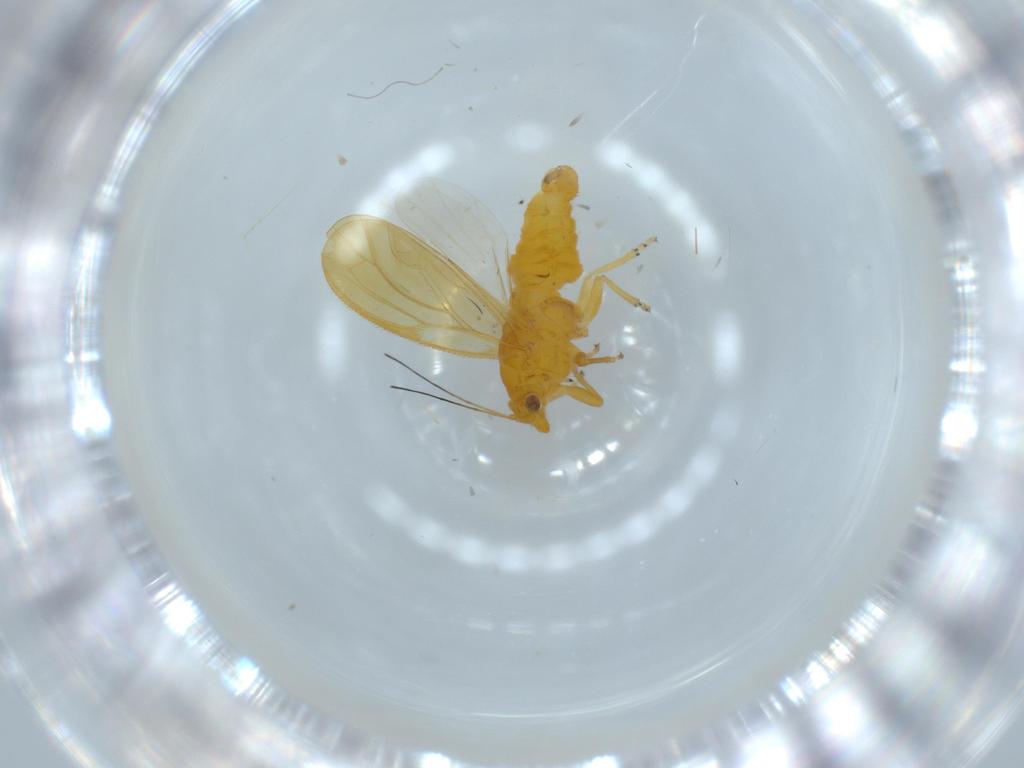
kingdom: Animalia
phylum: Arthropoda
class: Insecta
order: Hemiptera
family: Psyllidae
